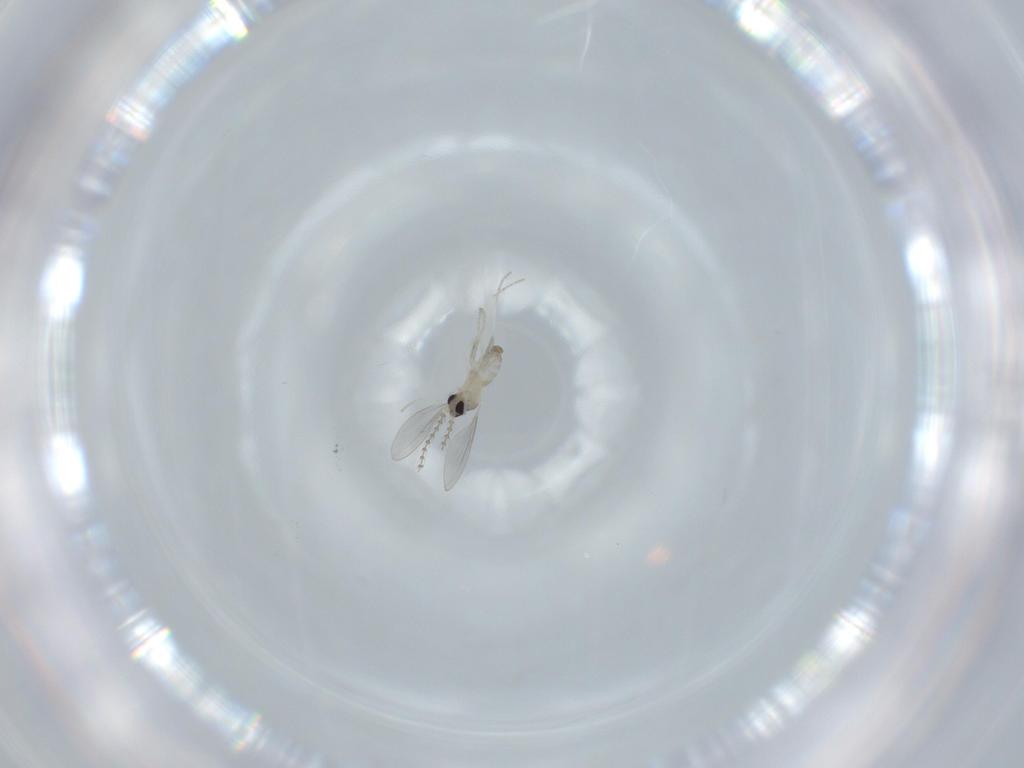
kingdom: Animalia
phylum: Arthropoda
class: Insecta
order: Diptera
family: Cecidomyiidae
